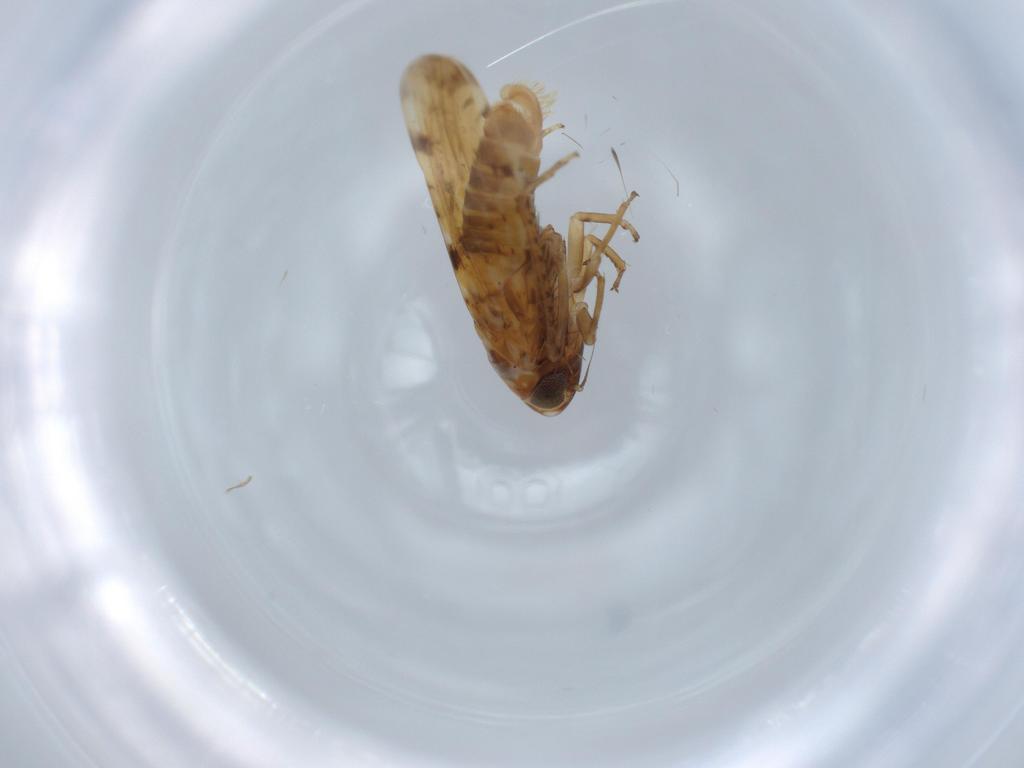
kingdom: Animalia
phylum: Arthropoda
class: Insecta
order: Hemiptera
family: Cicadellidae
